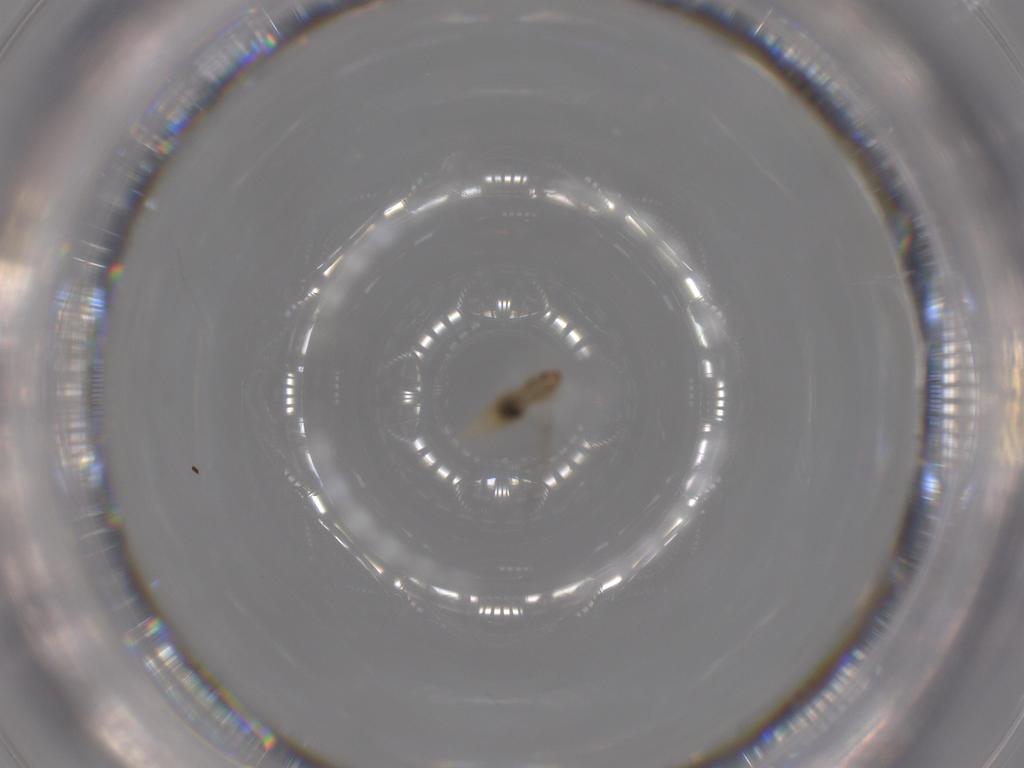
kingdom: Animalia
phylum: Arthropoda
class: Insecta
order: Diptera
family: Cecidomyiidae
